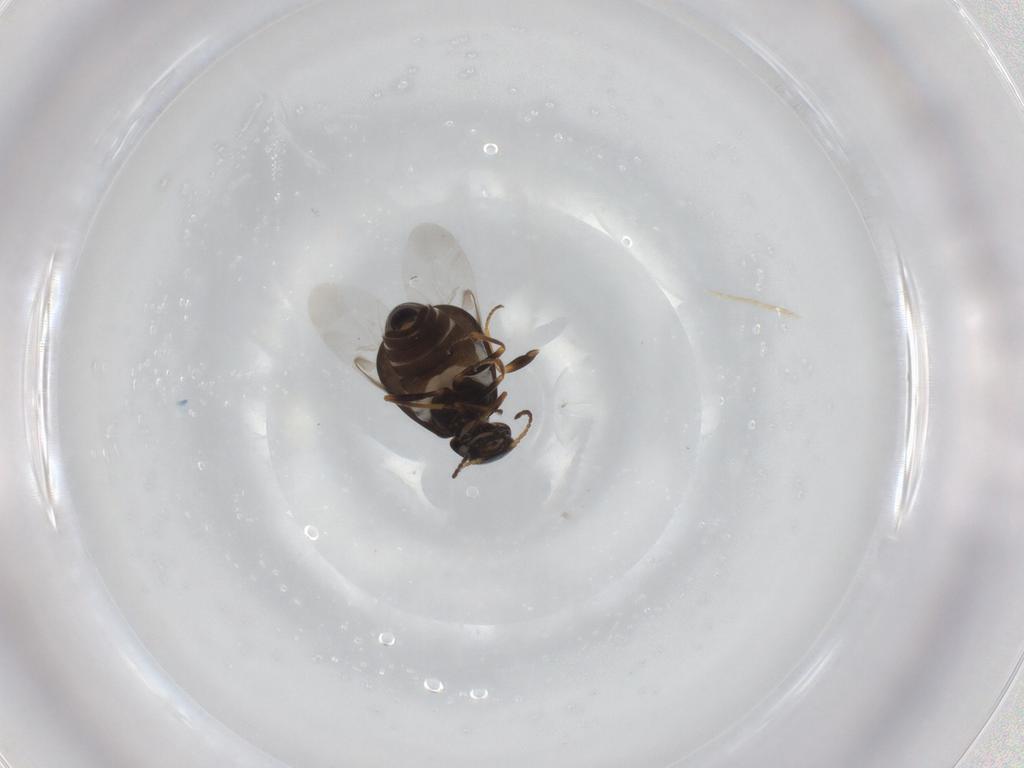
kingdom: Animalia
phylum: Arthropoda
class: Insecta
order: Coleoptera
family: Melyridae
